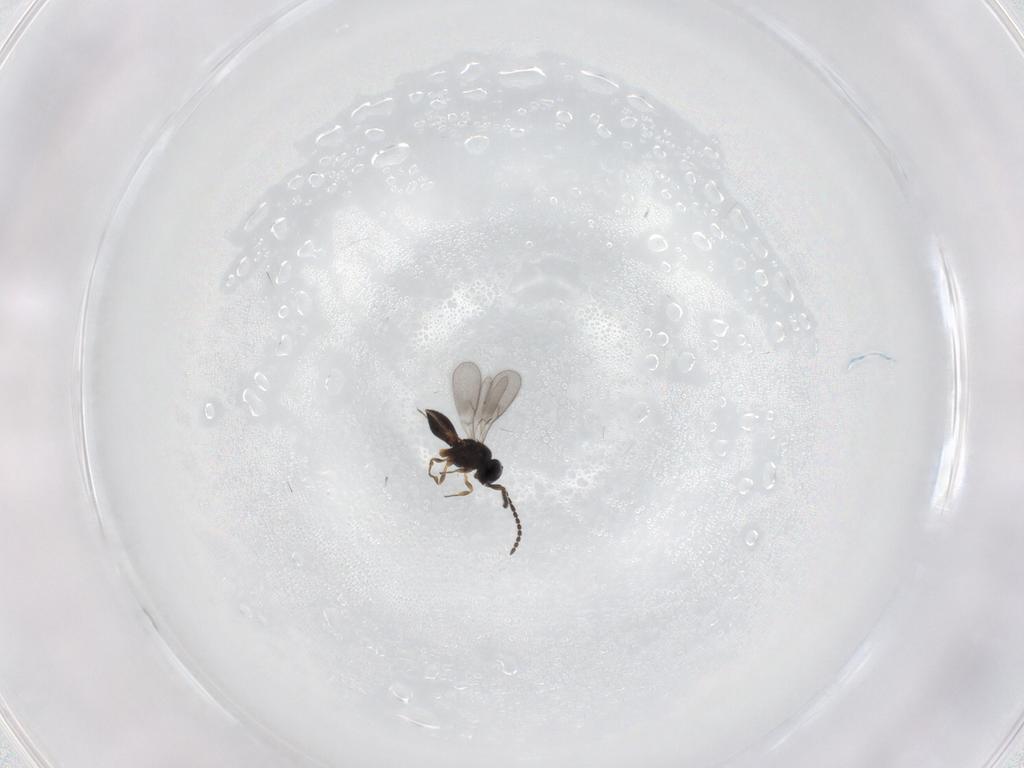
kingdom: Animalia
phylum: Arthropoda
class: Insecta
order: Hymenoptera
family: Scelionidae
